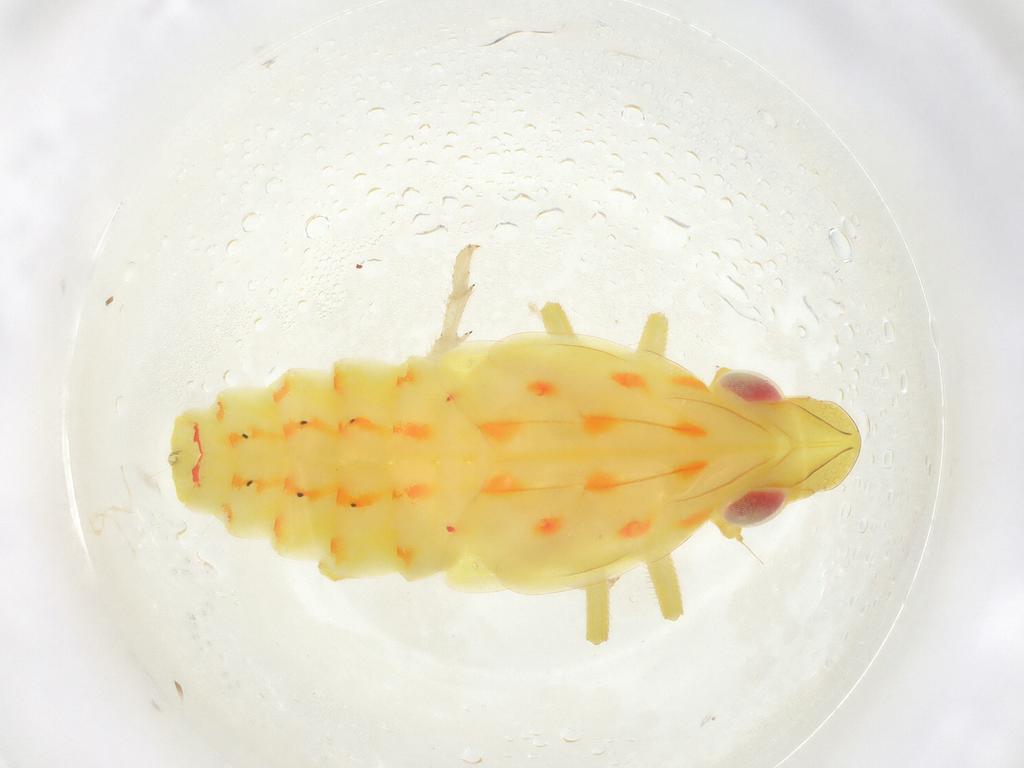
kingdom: Animalia
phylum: Arthropoda
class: Insecta
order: Hemiptera
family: Tropiduchidae
